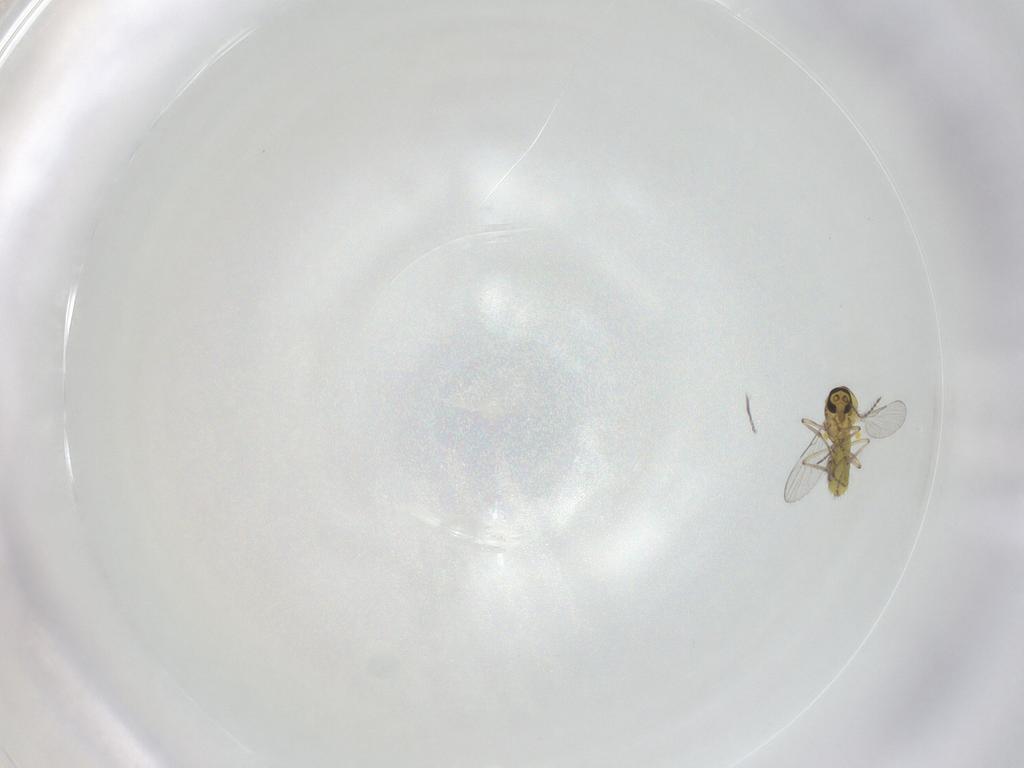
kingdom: Animalia
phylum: Arthropoda
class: Insecta
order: Diptera
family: Ceratopogonidae
